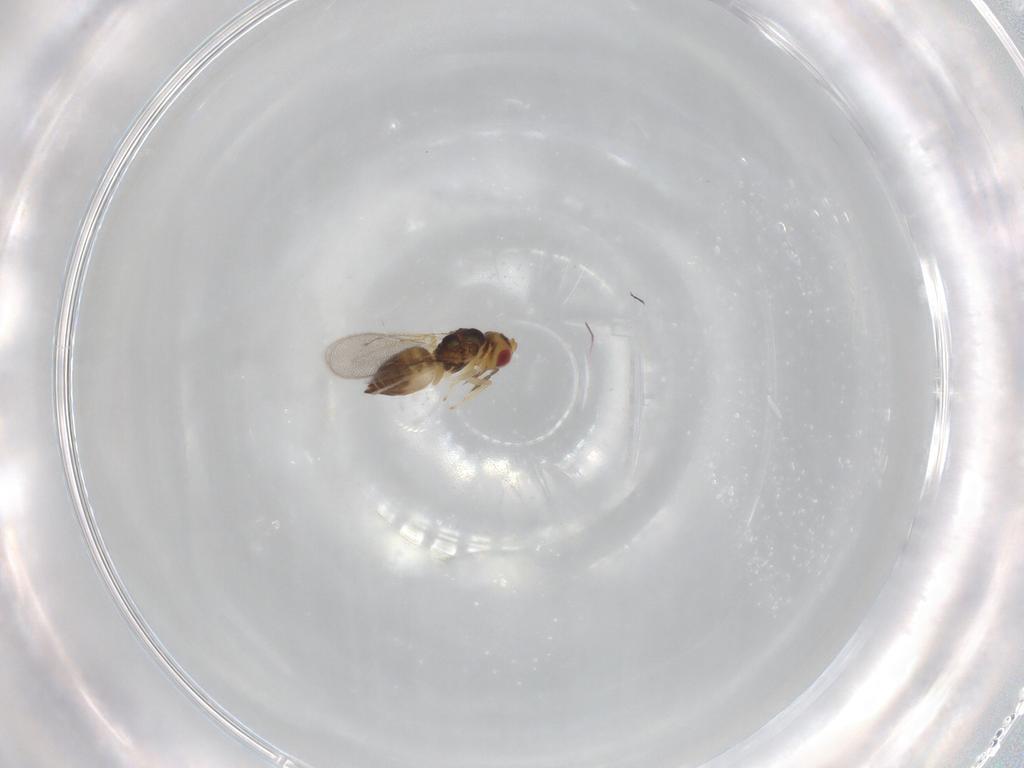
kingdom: Animalia
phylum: Arthropoda
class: Insecta
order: Hymenoptera
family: Eulophidae
